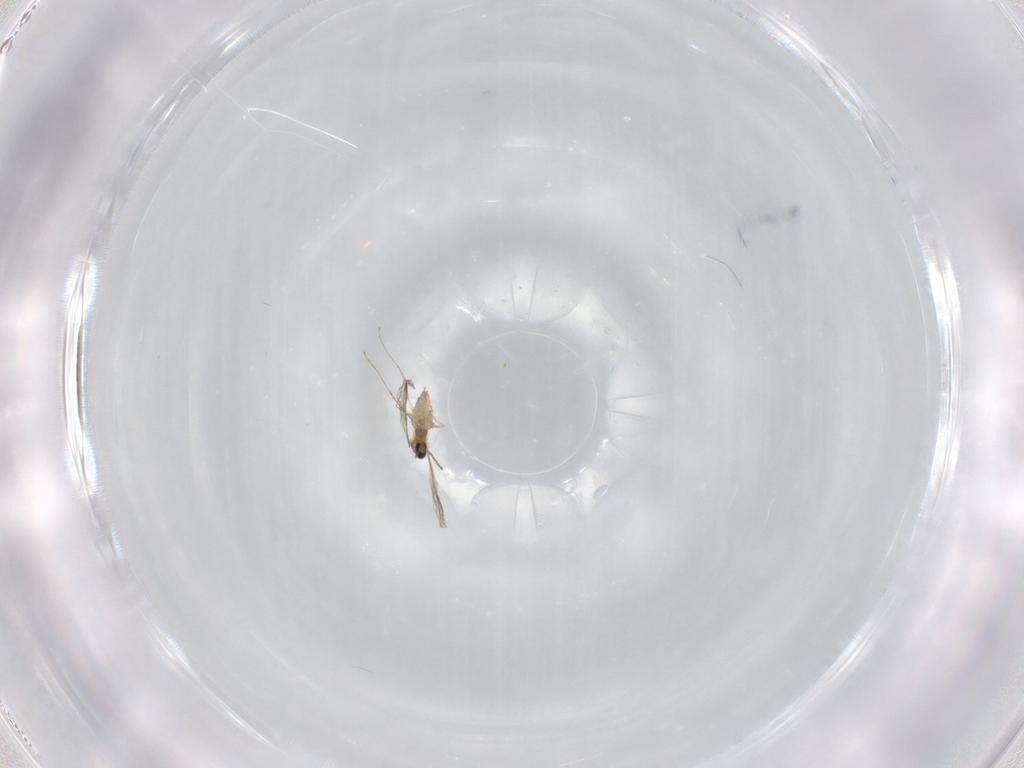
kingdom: Animalia
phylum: Arthropoda
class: Insecta
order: Diptera
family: Cecidomyiidae
